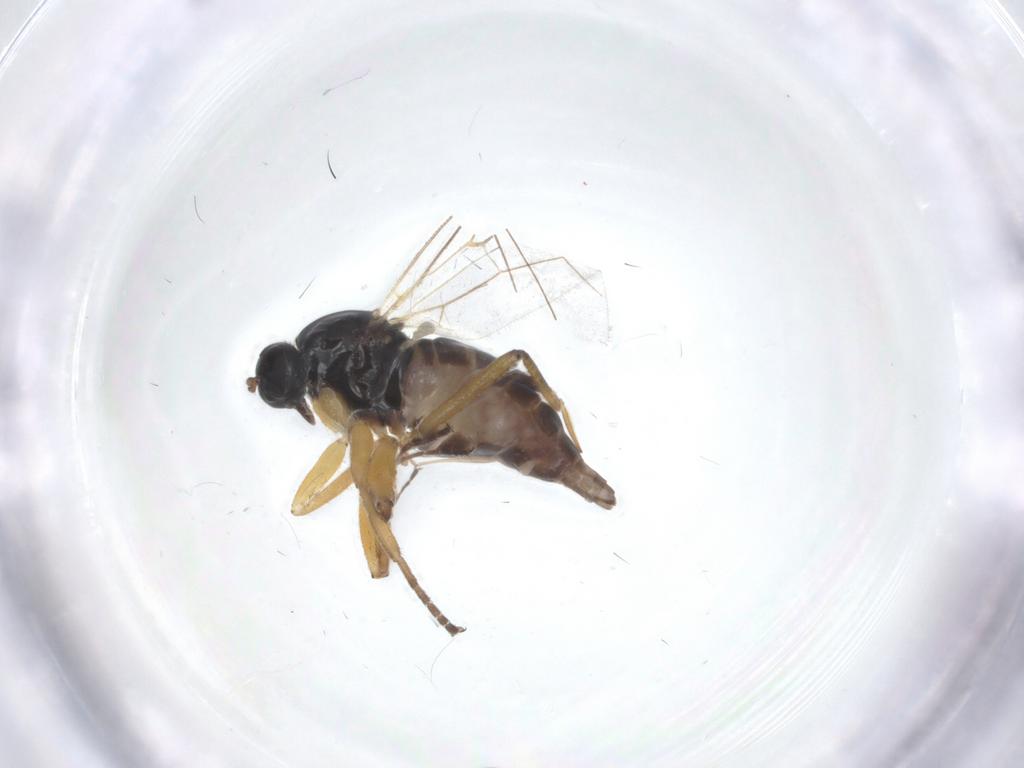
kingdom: Animalia
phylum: Arthropoda
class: Insecta
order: Diptera
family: Hybotidae
